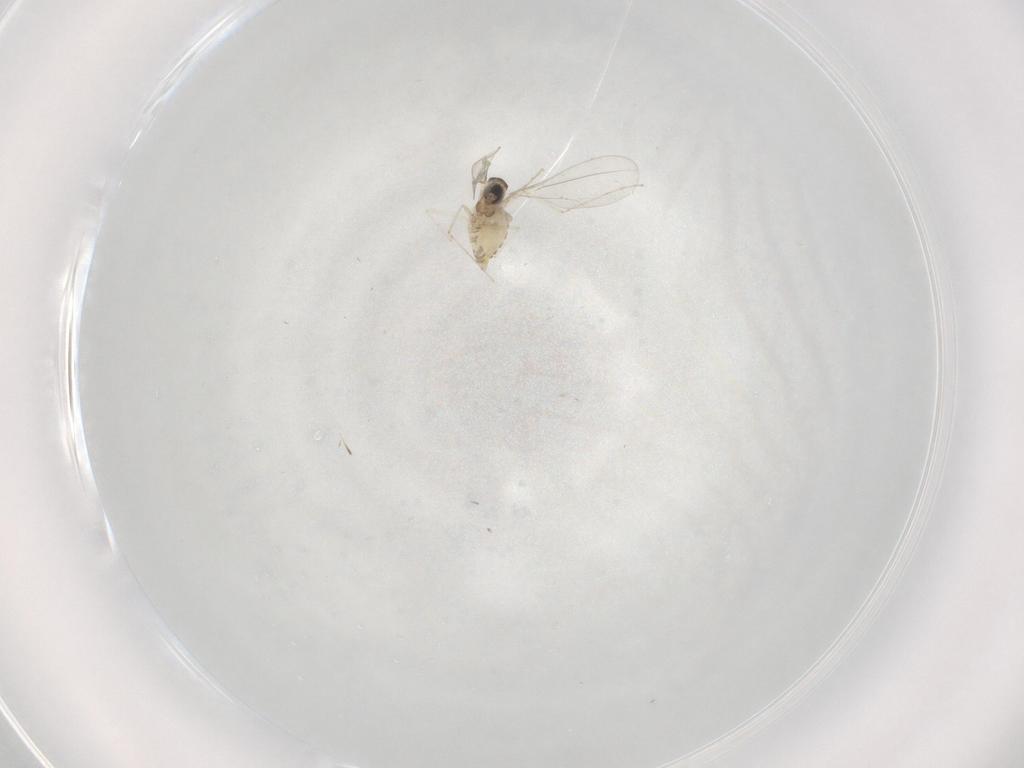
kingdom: Animalia
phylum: Arthropoda
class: Insecta
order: Diptera
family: Cecidomyiidae
